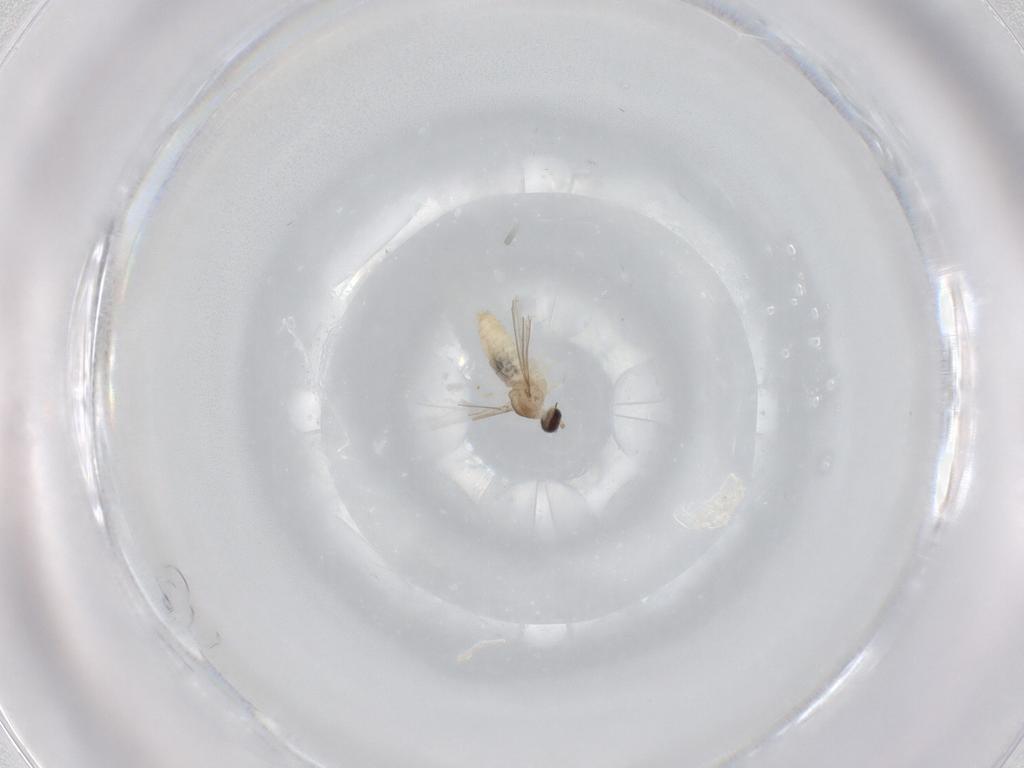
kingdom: Animalia
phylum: Arthropoda
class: Insecta
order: Diptera
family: Cecidomyiidae
